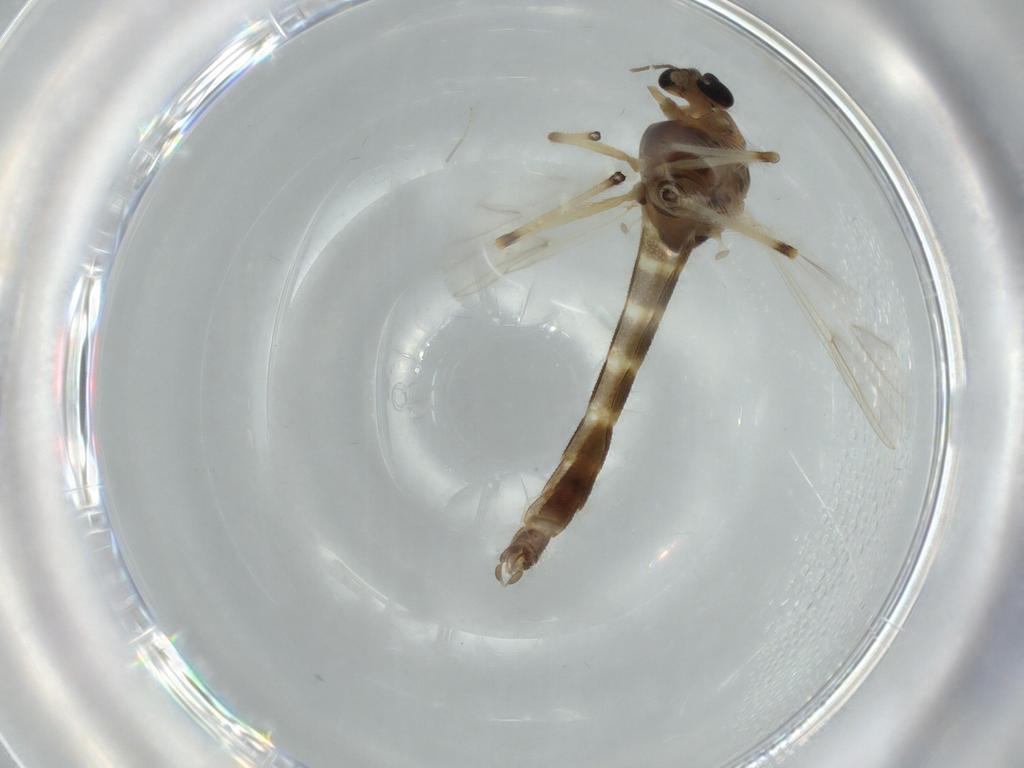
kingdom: Animalia
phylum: Arthropoda
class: Insecta
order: Diptera
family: Chironomidae
